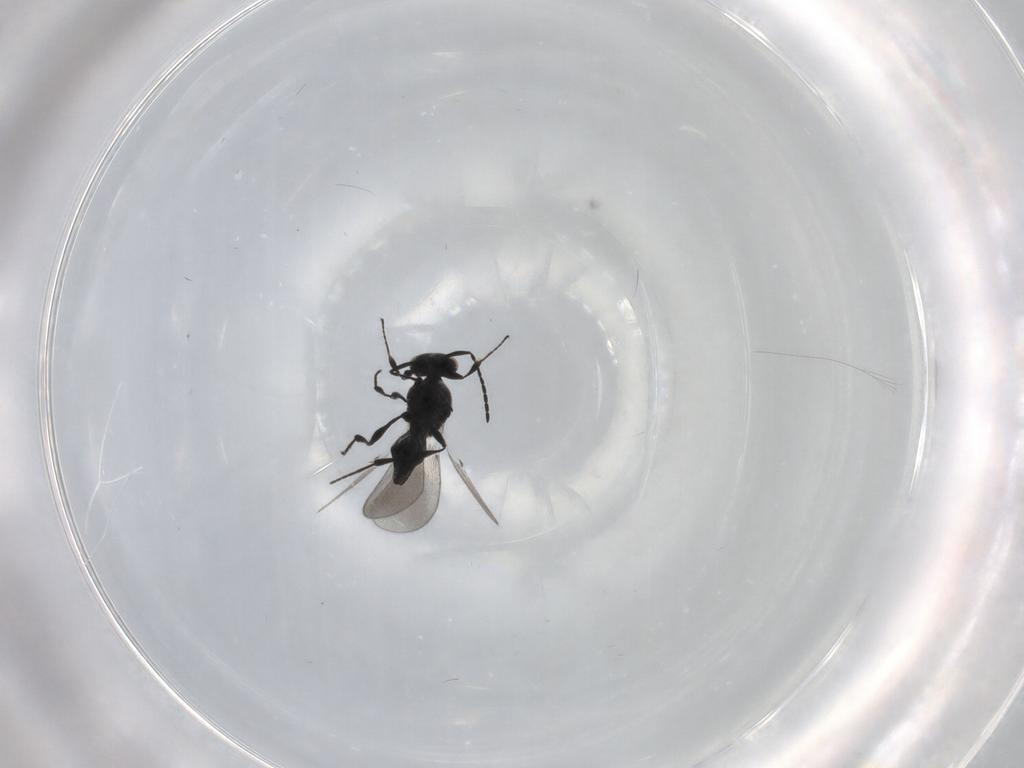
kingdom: Animalia
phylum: Arthropoda
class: Insecta
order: Diptera
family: Mythicomyiidae
